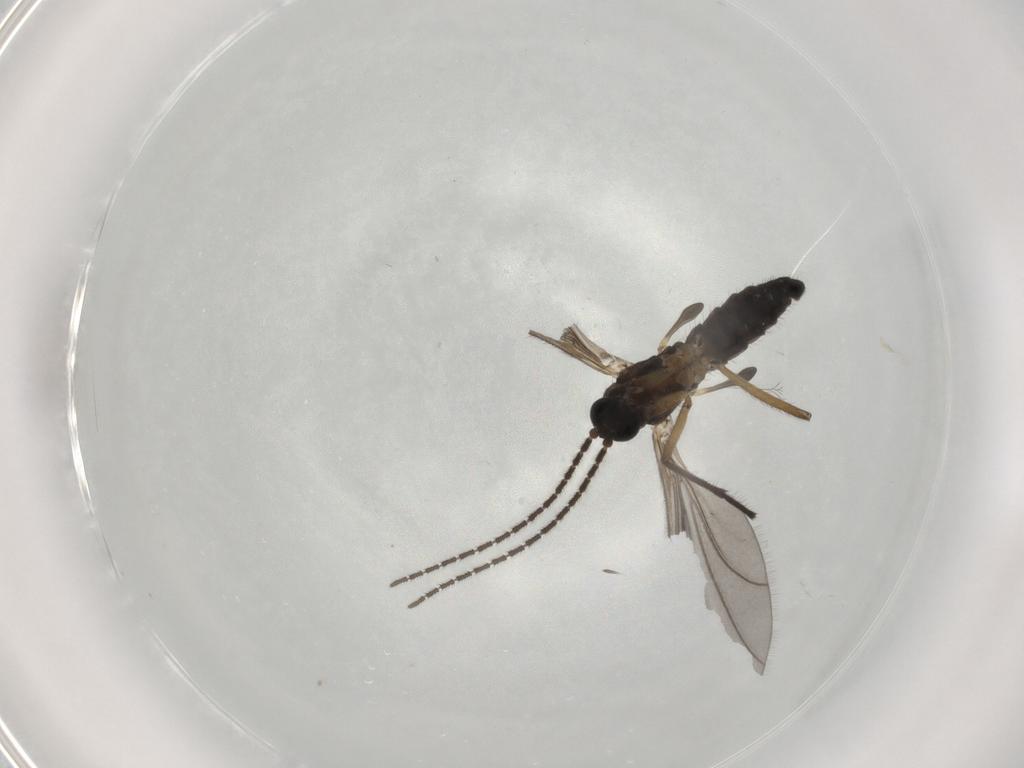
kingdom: Animalia
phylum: Arthropoda
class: Insecta
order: Diptera
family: Sciaridae
